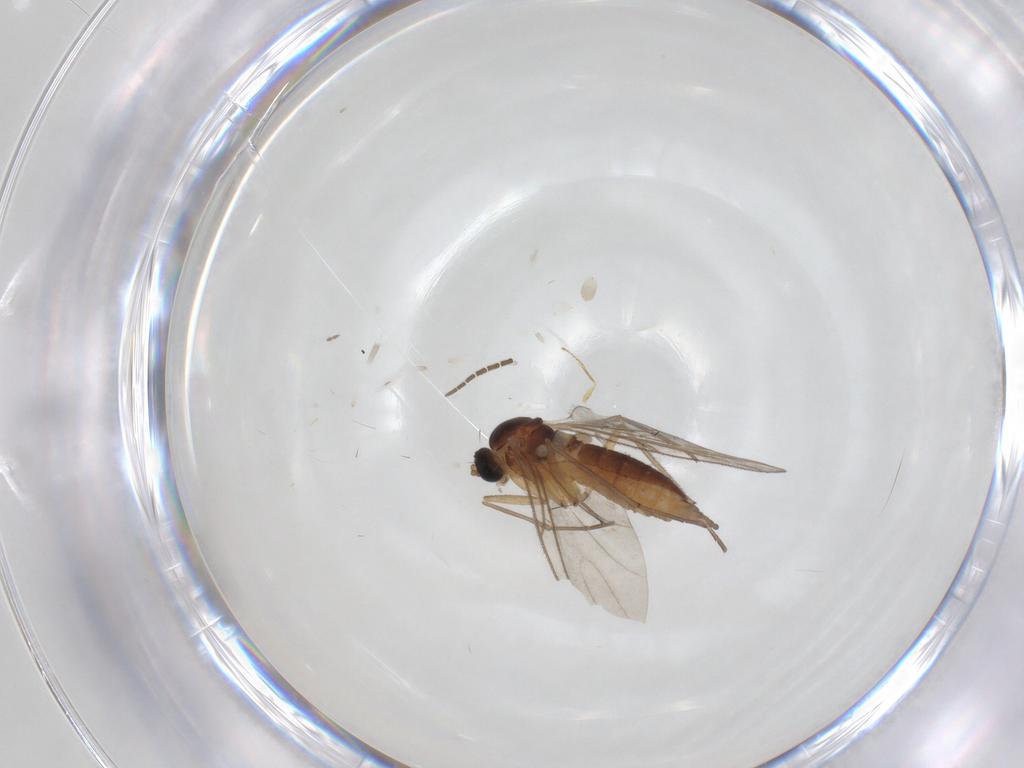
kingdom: Animalia
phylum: Arthropoda
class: Insecta
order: Diptera
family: Sciaridae
